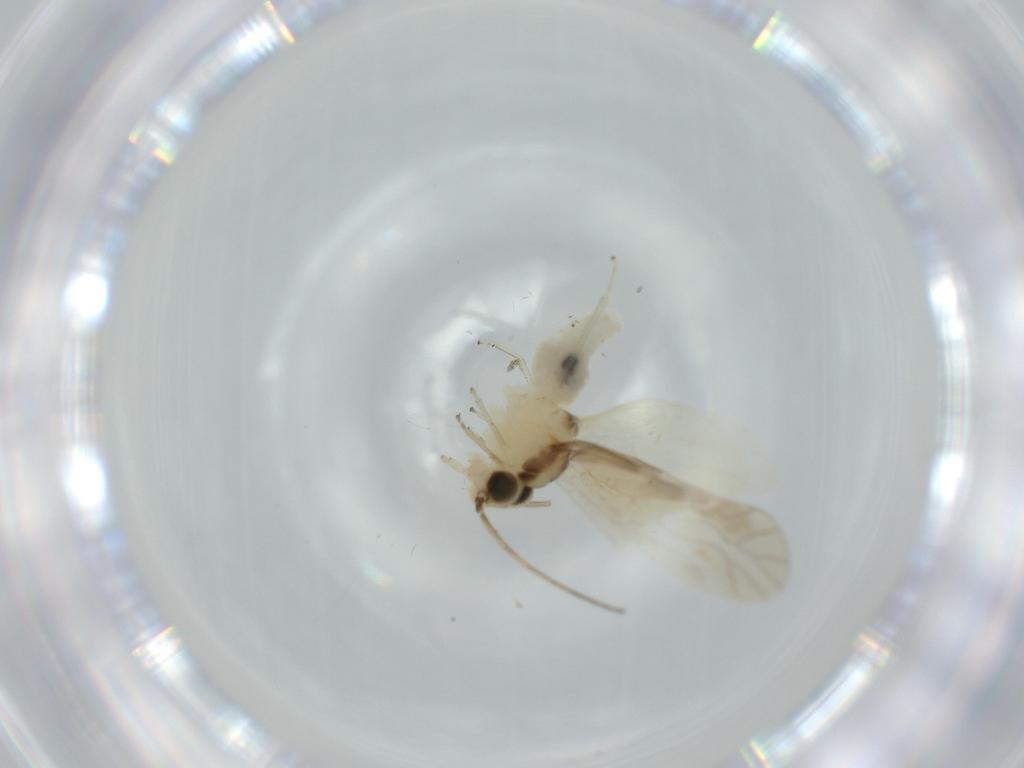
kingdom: Animalia
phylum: Arthropoda
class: Insecta
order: Psocodea
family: Caeciliusidae
